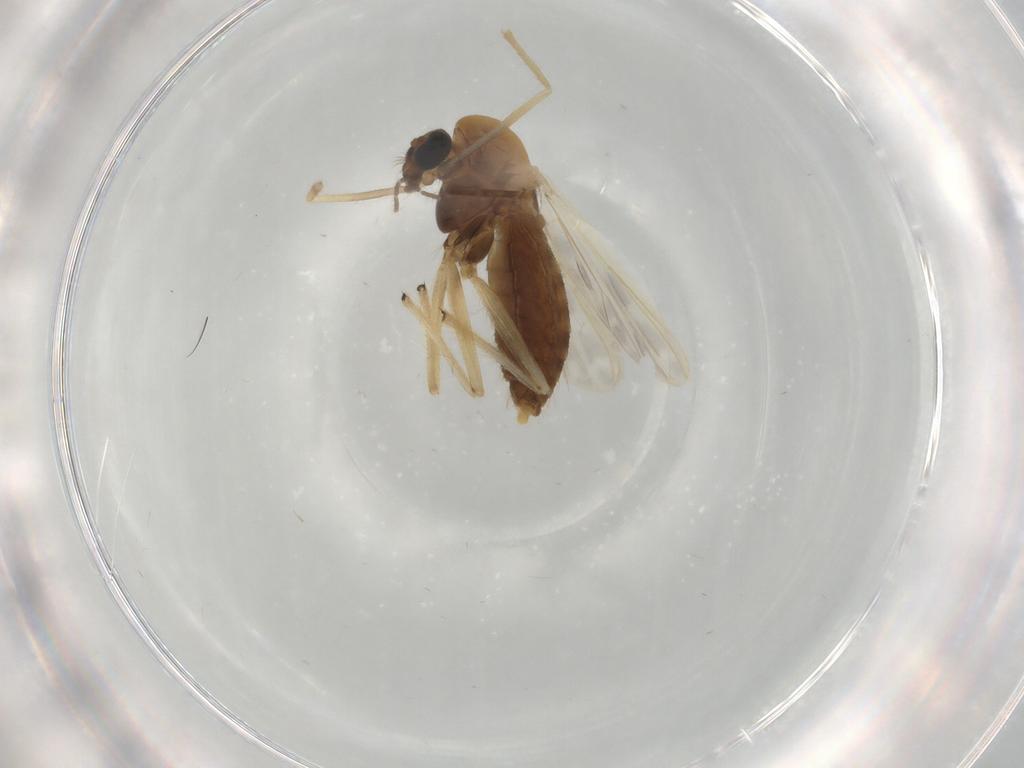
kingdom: Animalia
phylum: Arthropoda
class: Insecta
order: Diptera
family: Chironomidae
